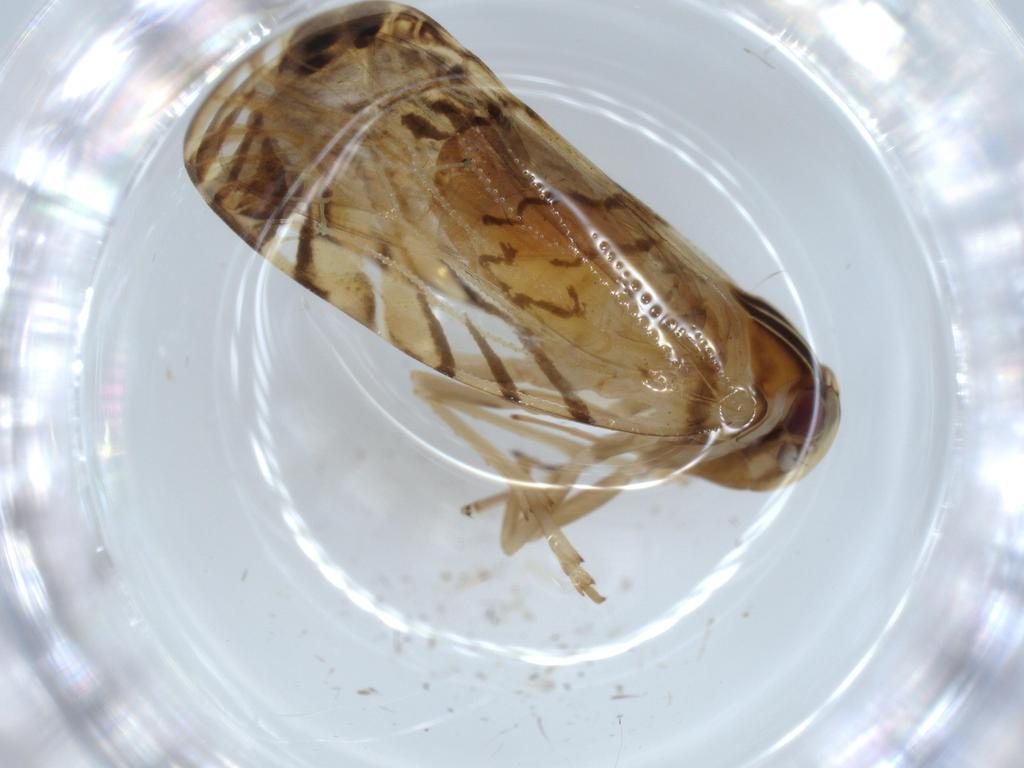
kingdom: Animalia
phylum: Arthropoda
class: Insecta
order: Hemiptera
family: Cixiidae
